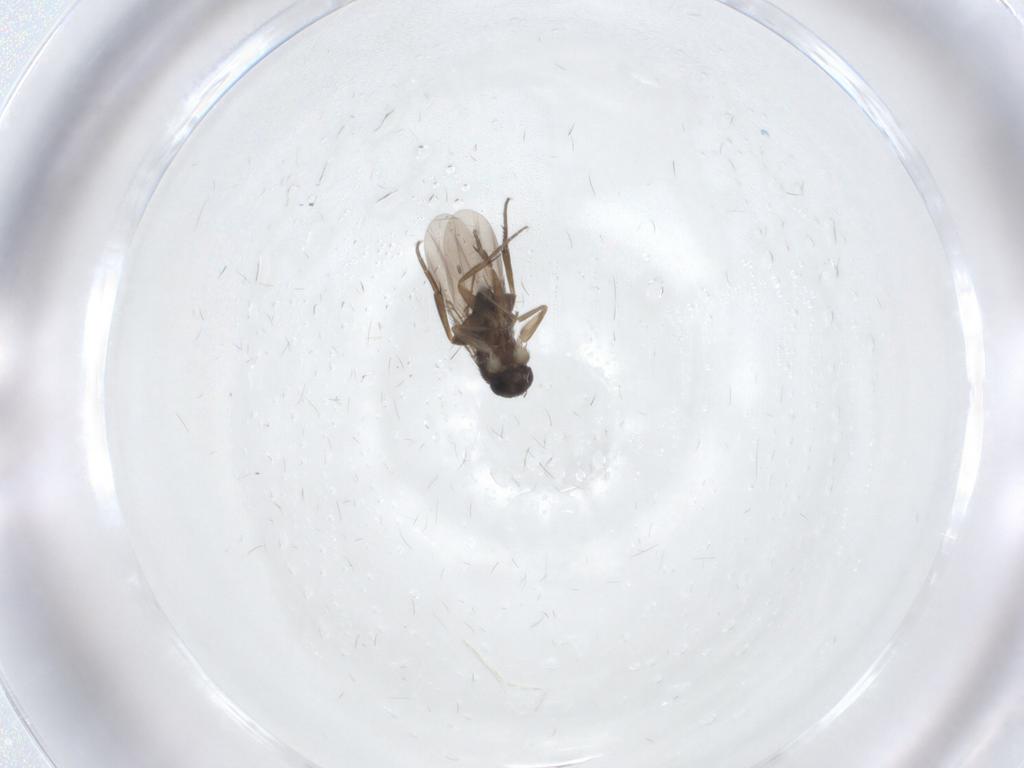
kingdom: Animalia
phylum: Arthropoda
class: Insecta
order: Diptera
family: Phoridae
